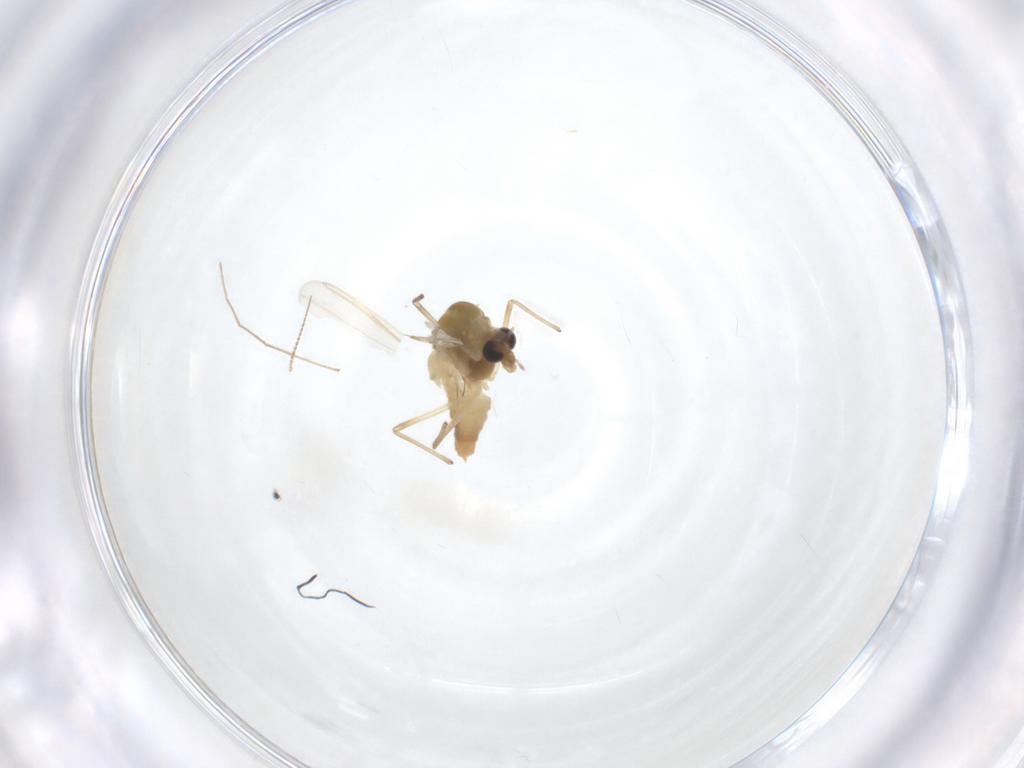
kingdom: Animalia
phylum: Arthropoda
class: Insecta
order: Diptera
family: Chironomidae
